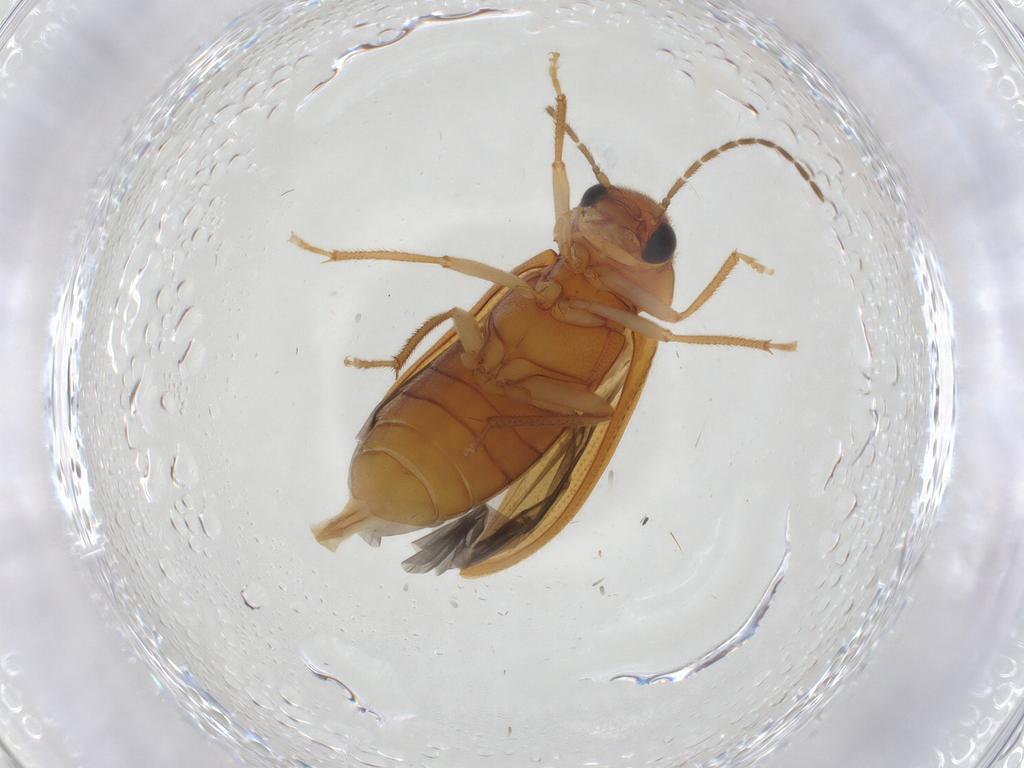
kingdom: Animalia
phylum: Arthropoda
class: Insecta
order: Coleoptera
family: Ptilodactylidae
